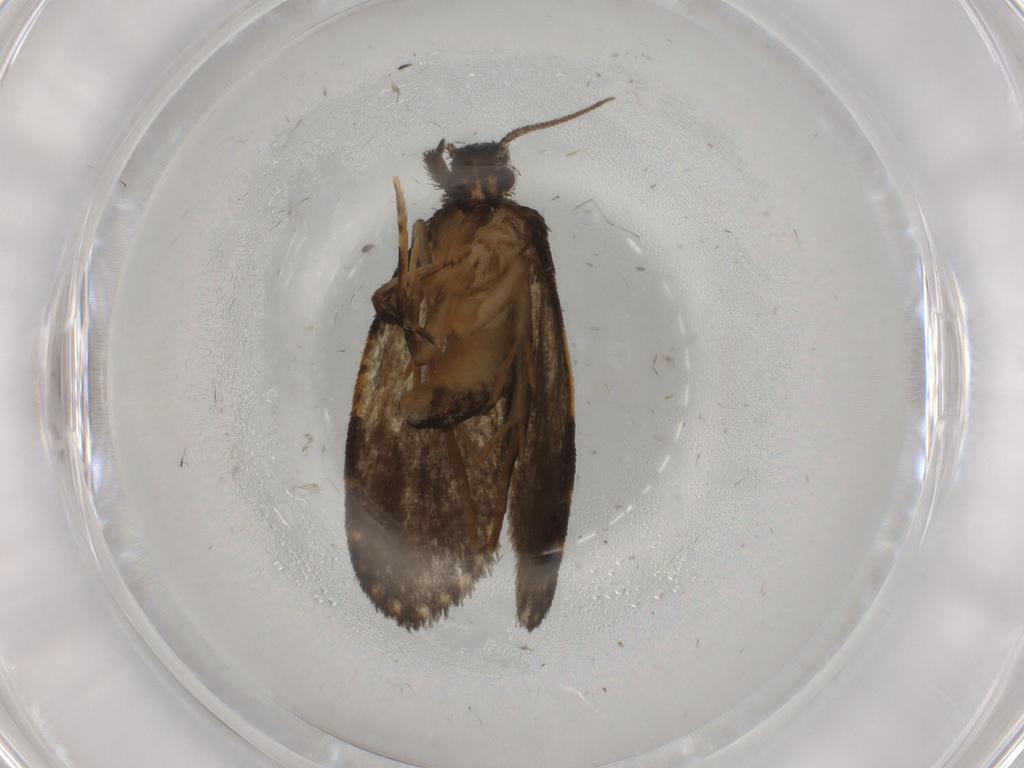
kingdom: Animalia
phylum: Arthropoda
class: Insecta
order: Lepidoptera
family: Psychidae
